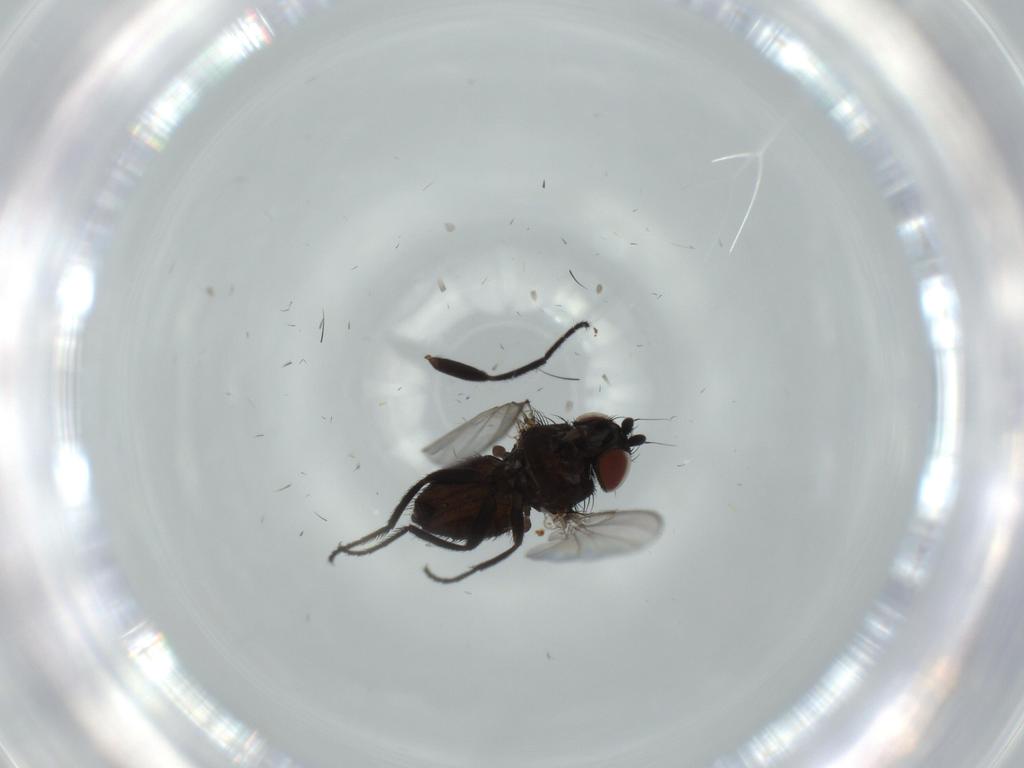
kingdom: Animalia
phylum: Arthropoda
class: Insecta
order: Diptera
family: Milichiidae
